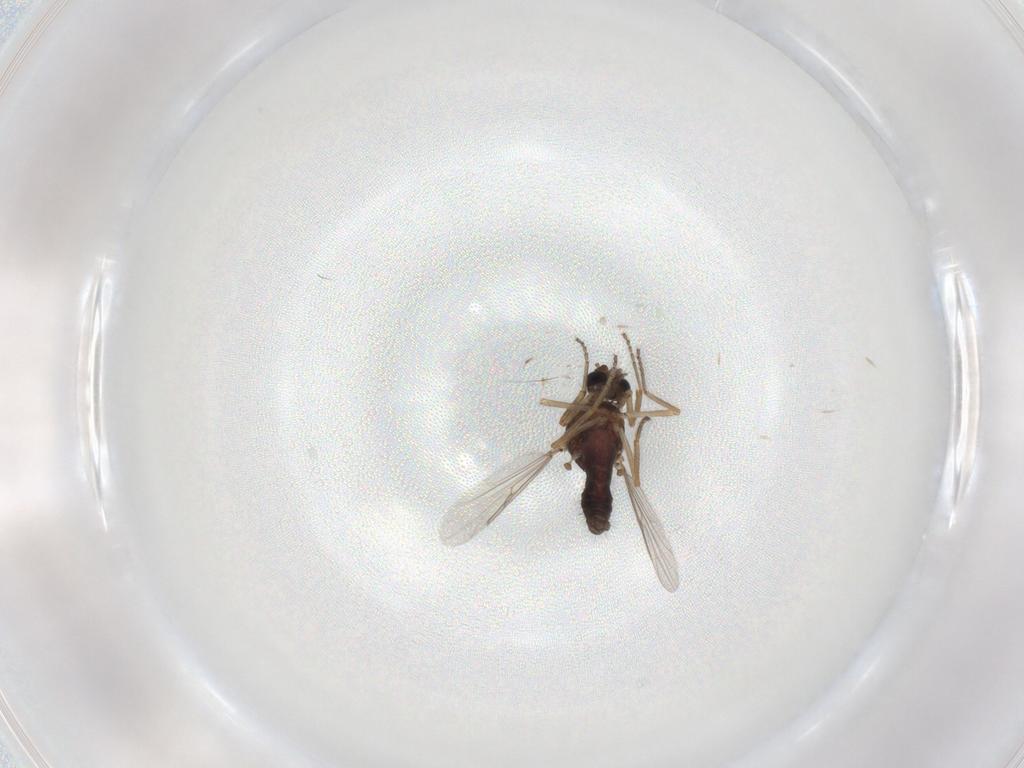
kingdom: Animalia
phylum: Arthropoda
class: Insecta
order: Diptera
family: Ceratopogonidae
